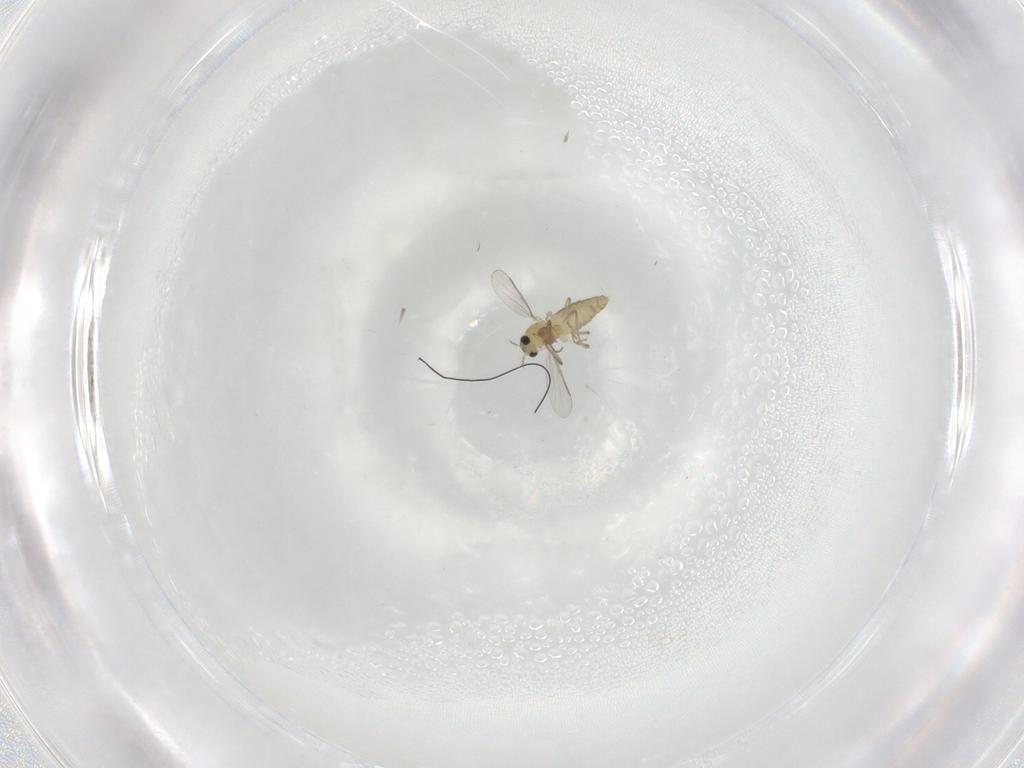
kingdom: Animalia
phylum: Arthropoda
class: Insecta
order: Diptera
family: Chironomidae
